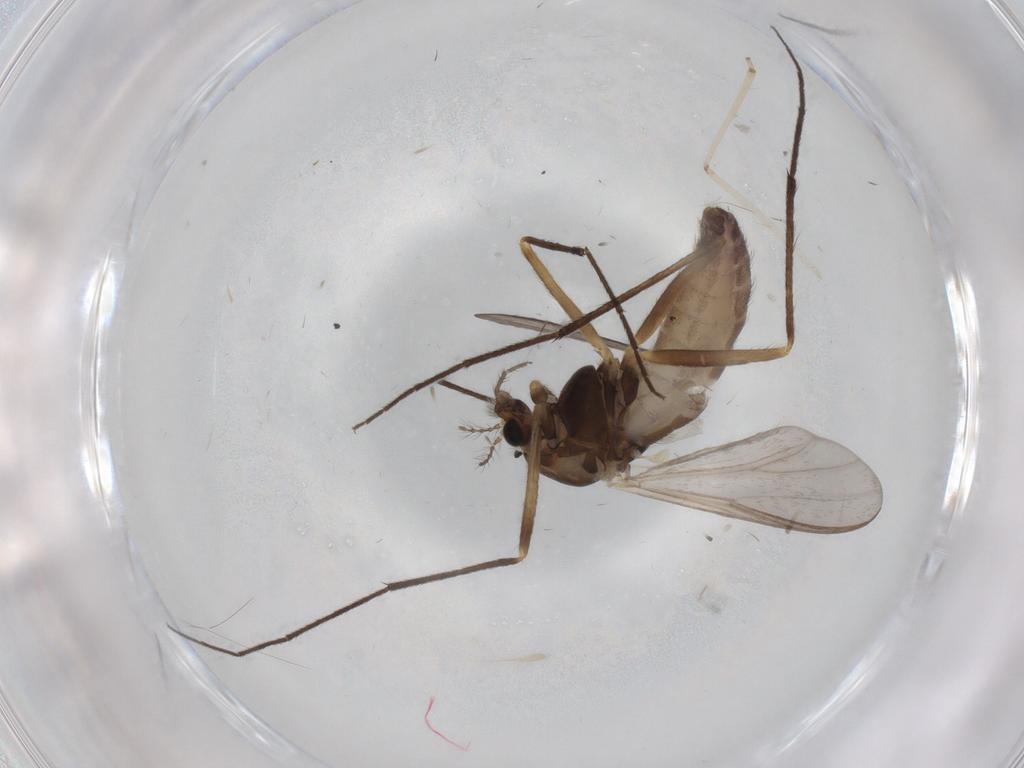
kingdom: Animalia
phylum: Arthropoda
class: Insecta
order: Diptera
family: Chironomidae
